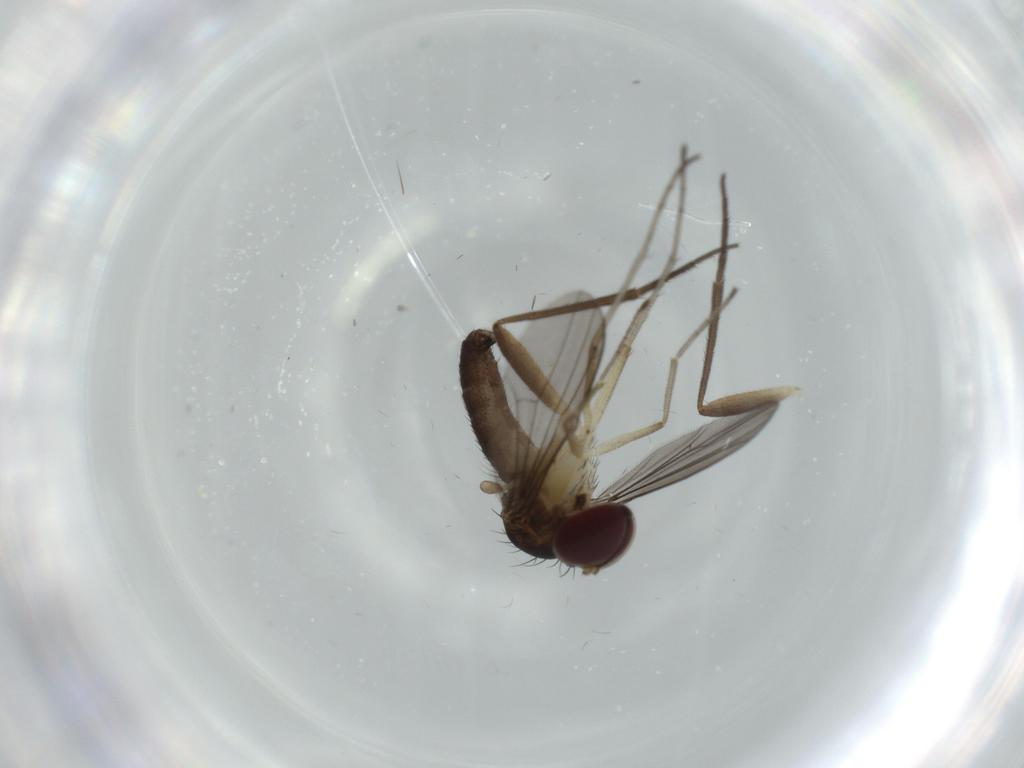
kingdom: Animalia
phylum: Arthropoda
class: Insecta
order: Diptera
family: Dolichopodidae
